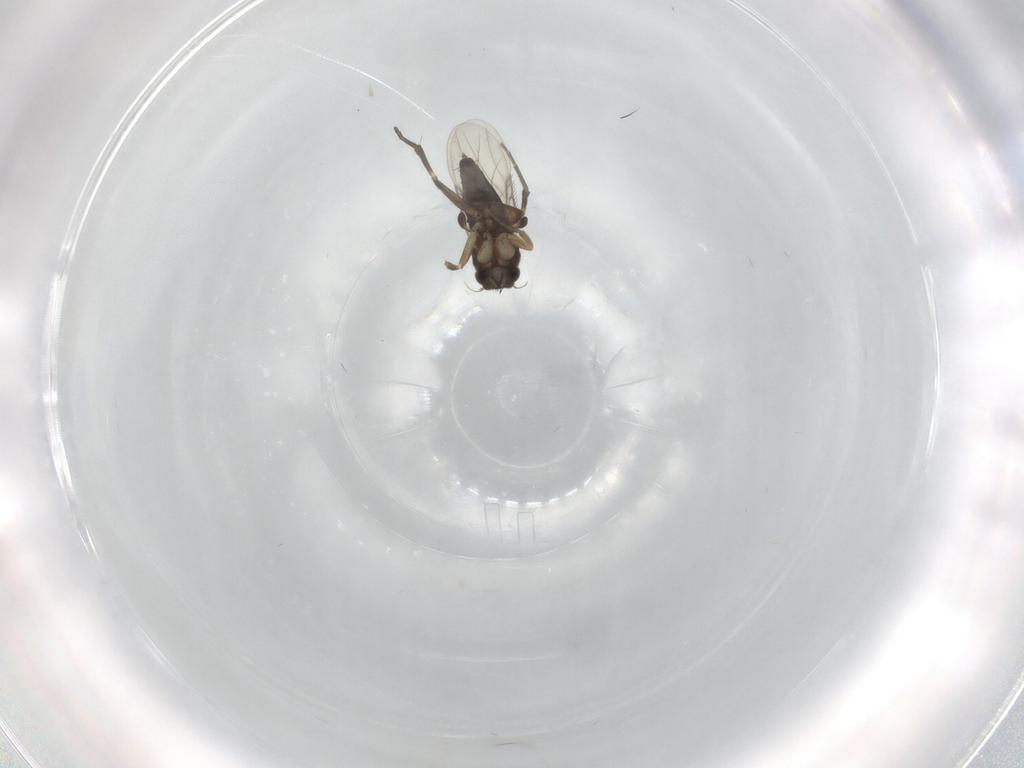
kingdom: Animalia
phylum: Arthropoda
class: Insecta
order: Diptera
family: Phoridae
